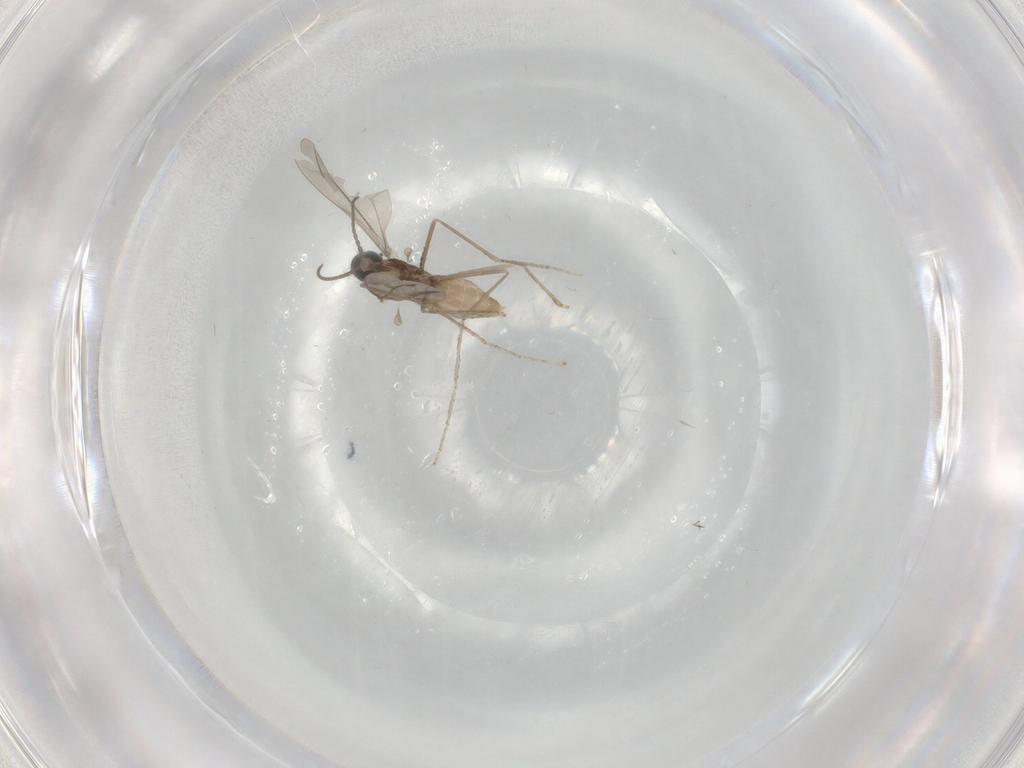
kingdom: Animalia
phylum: Arthropoda
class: Insecta
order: Diptera
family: Cecidomyiidae
